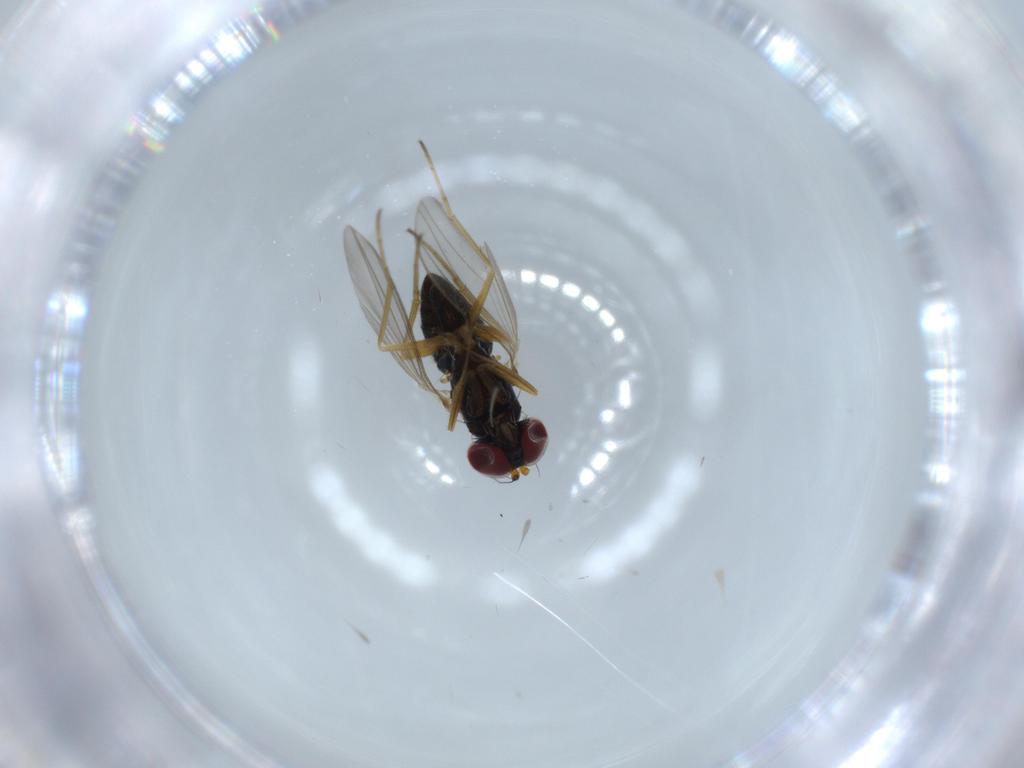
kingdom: Animalia
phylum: Arthropoda
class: Insecta
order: Diptera
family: Dolichopodidae
